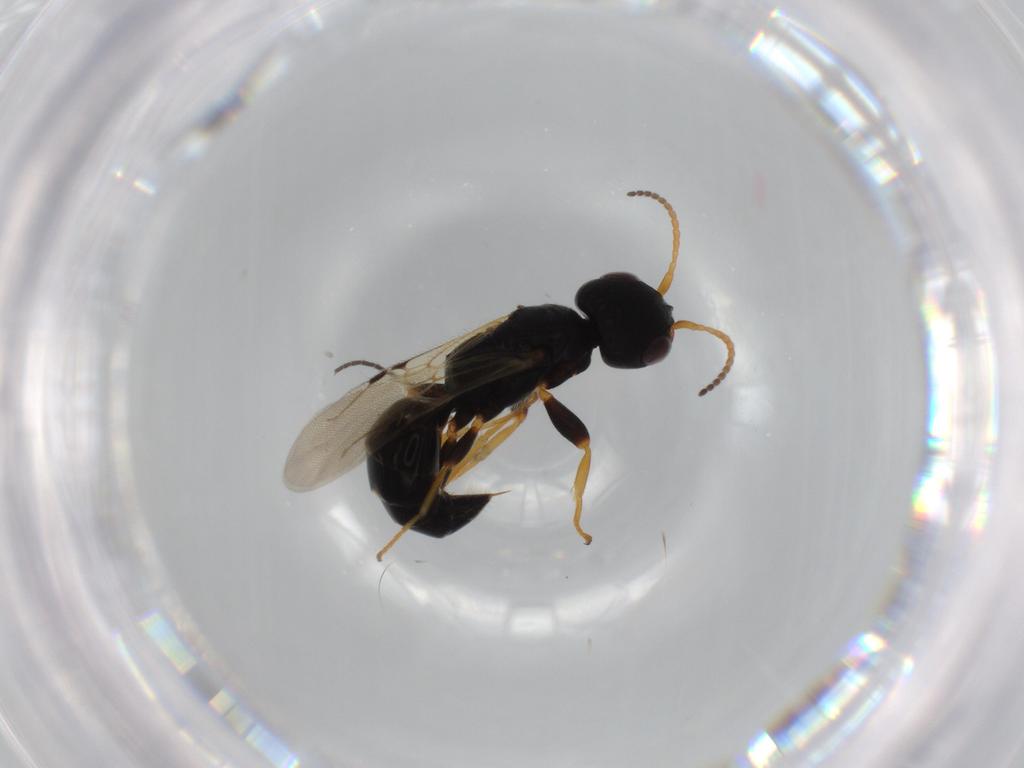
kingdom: Animalia
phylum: Arthropoda
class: Insecta
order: Hymenoptera
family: Bethylidae
